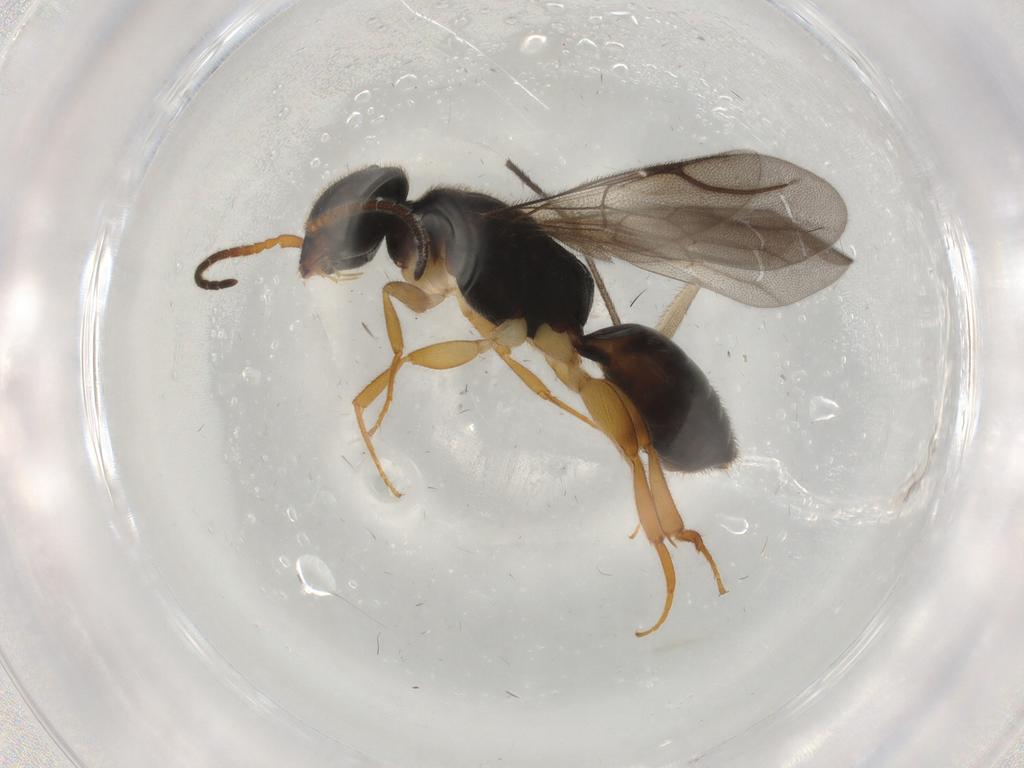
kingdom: Animalia
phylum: Arthropoda
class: Insecta
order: Hymenoptera
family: Bethylidae
